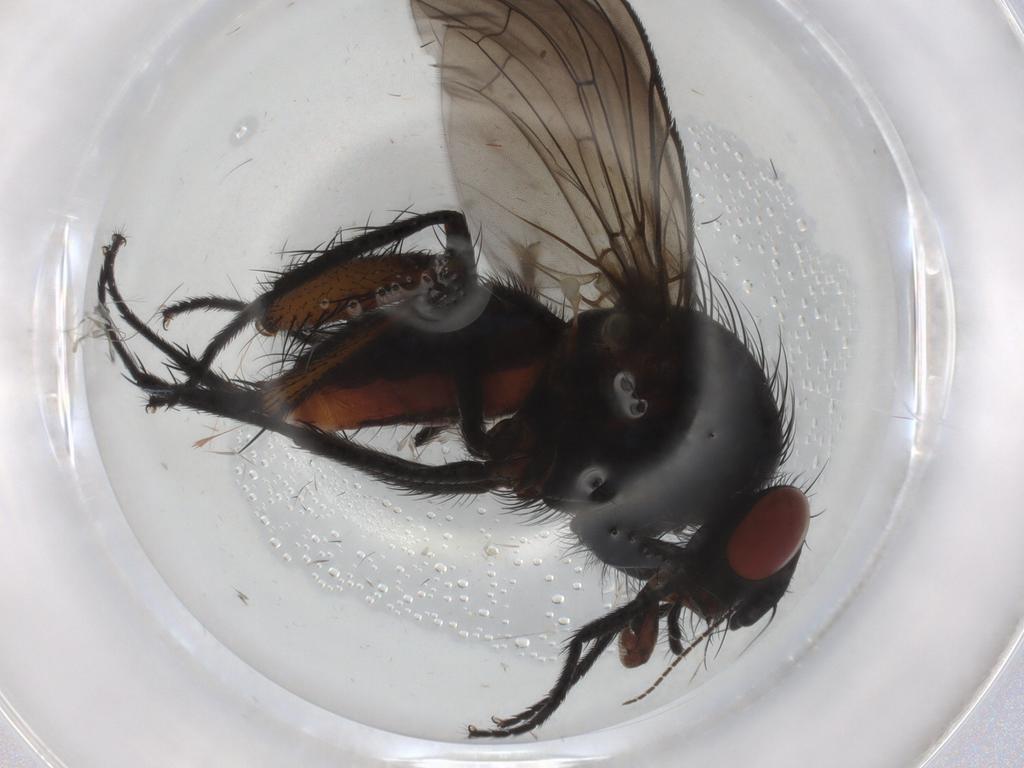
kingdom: Animalia
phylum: Arthropoda
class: Insecta
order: Diptera
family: Anthomyiidae
